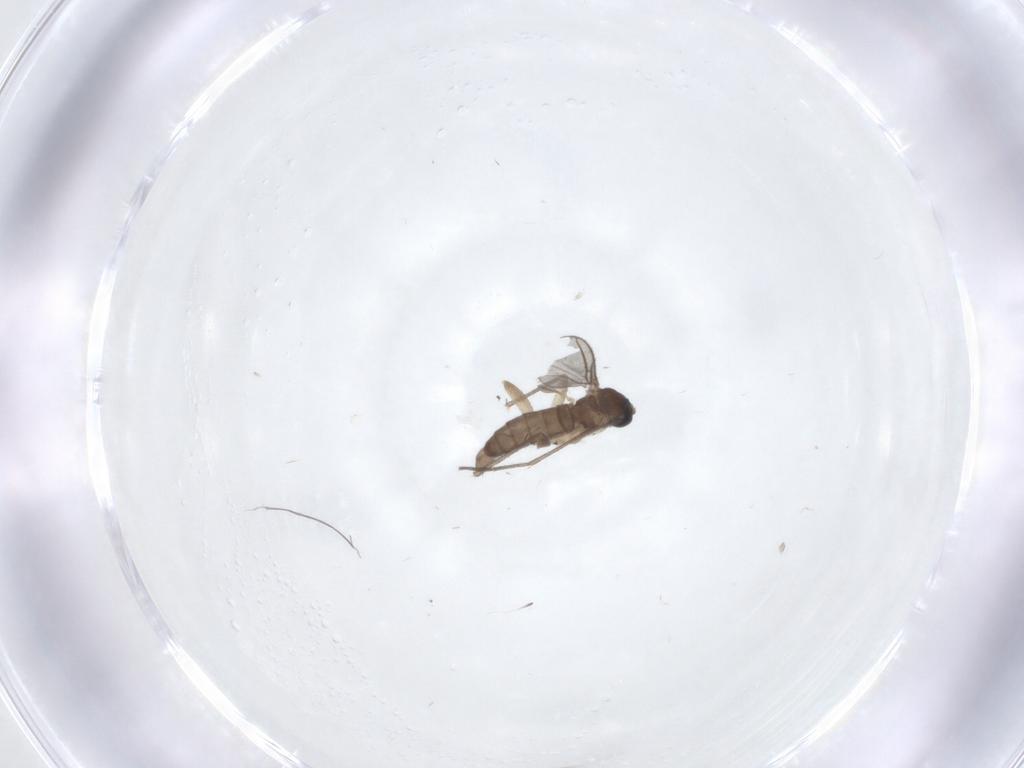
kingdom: Animalia
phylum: Arthropoda
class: Insecta
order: Diptera
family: Sciaridae
